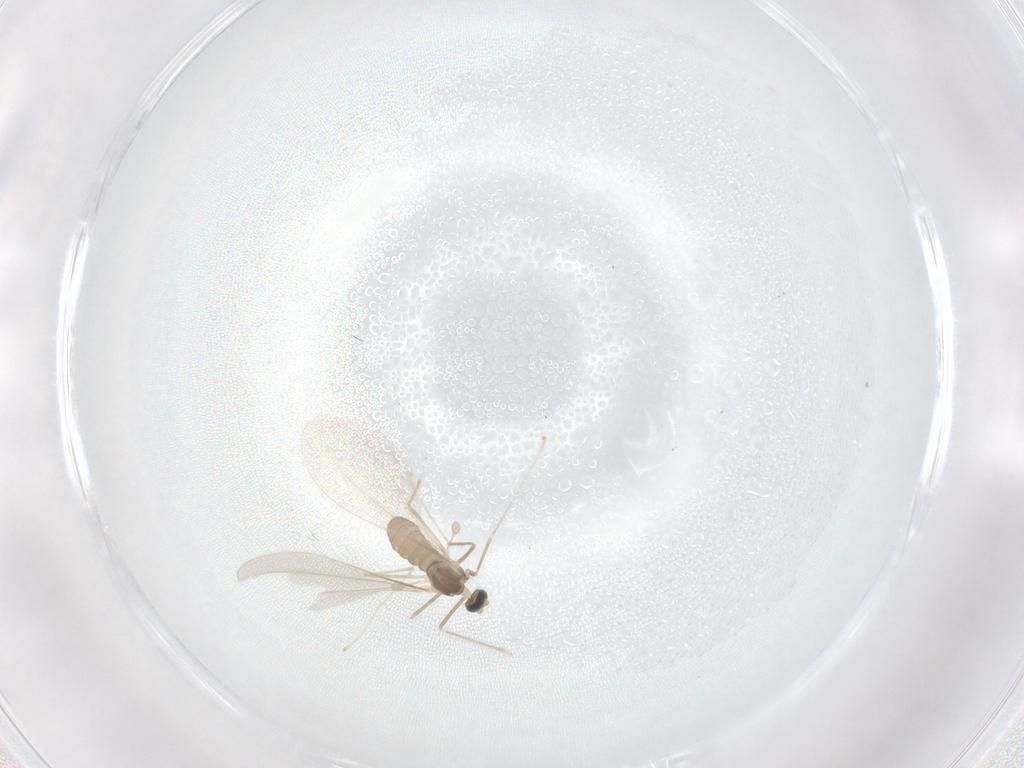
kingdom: Animalia
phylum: Arthropoda
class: Insecta
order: Diptera
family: Cecidomyiidae
